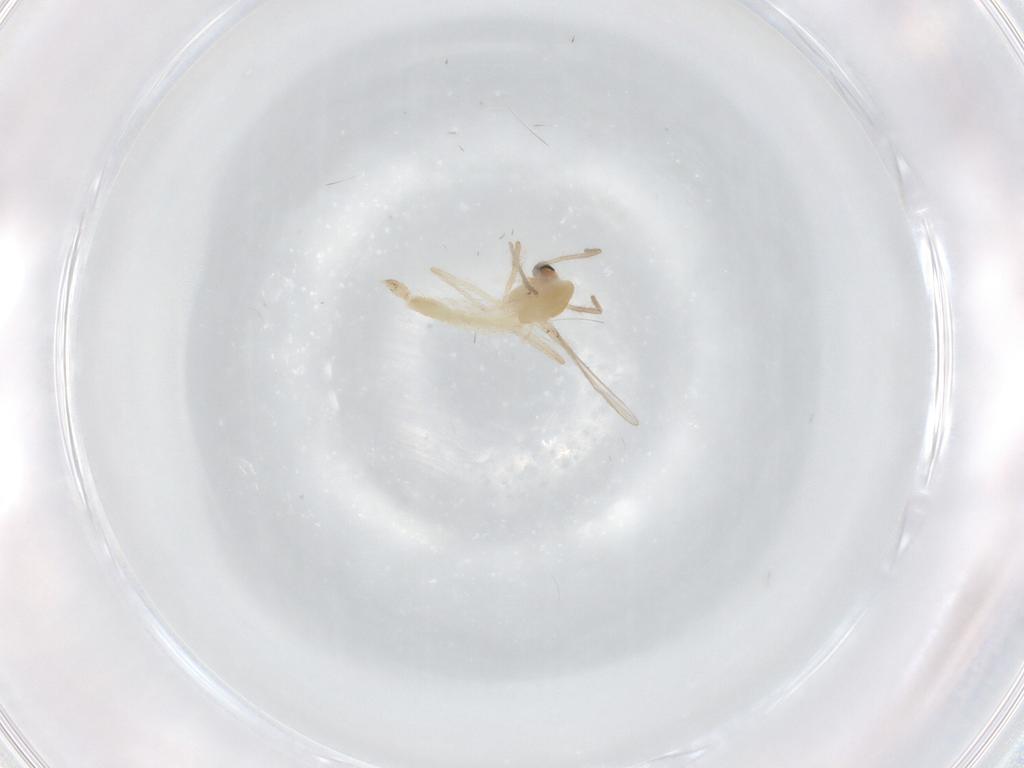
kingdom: Animalia
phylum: Arthropoda
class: Insecta
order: Diptera
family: Chironomidae
